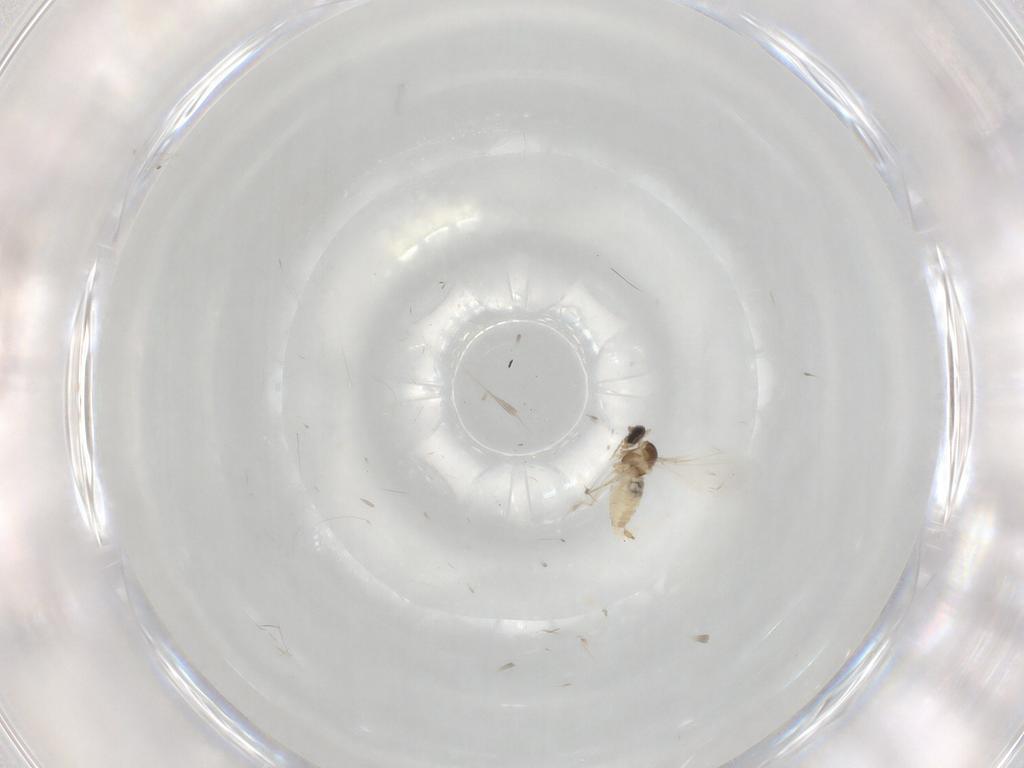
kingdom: Animalia
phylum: Arthropoda
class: Insecta
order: Diptera
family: Cecidomyiidae
